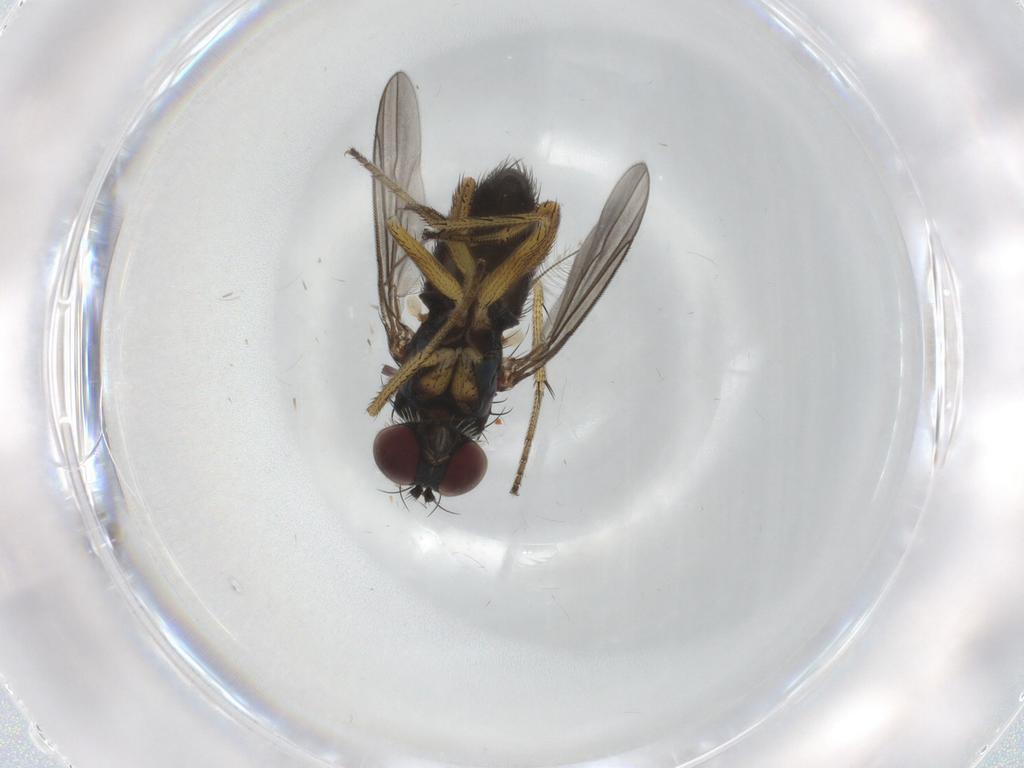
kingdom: Animalia
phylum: Arthropoda
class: Insecta
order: Diptera
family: Dolichopodidae
